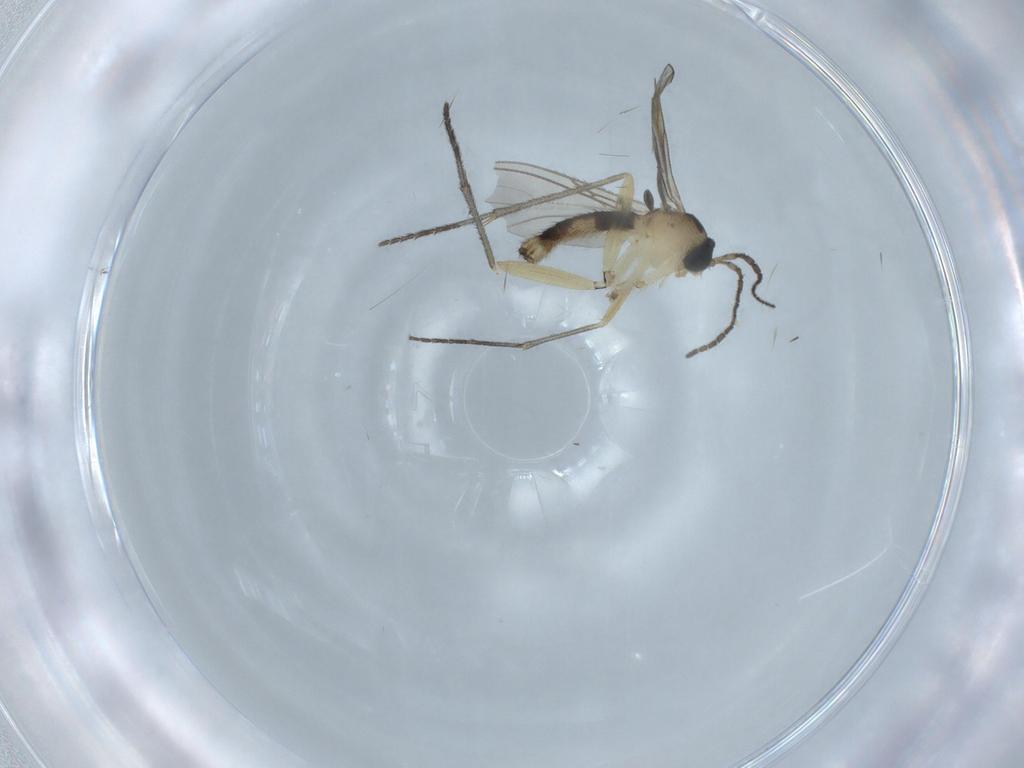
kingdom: Animalia
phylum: Arthropoda
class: Insecta
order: Diptera
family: Sciaridae
